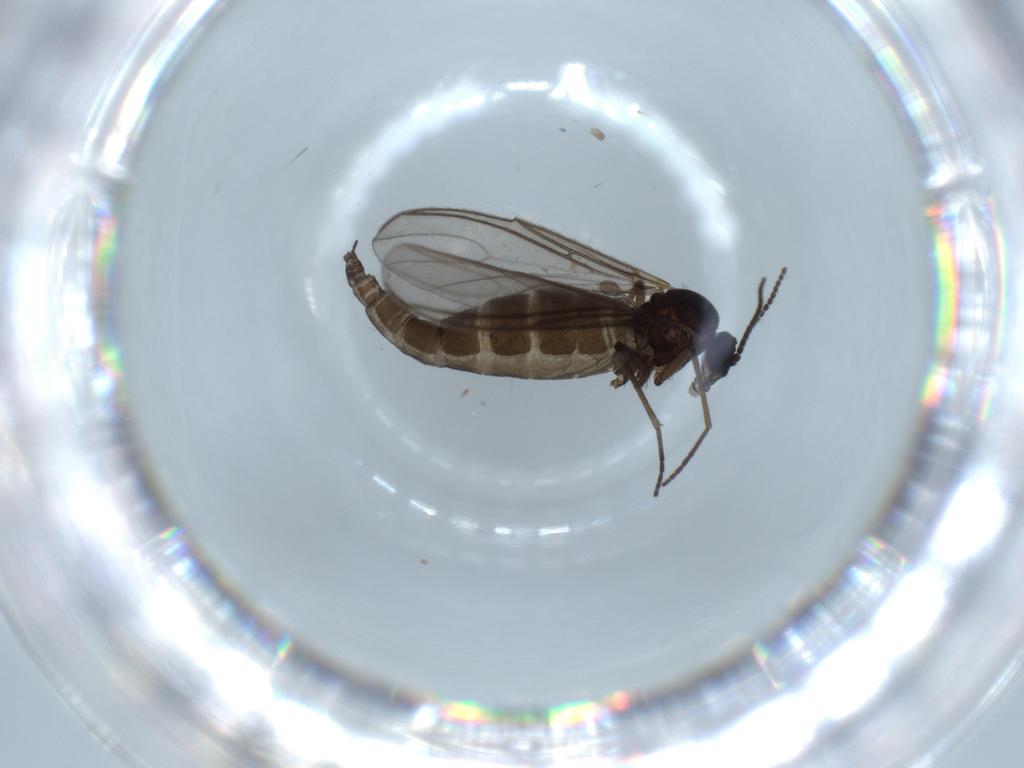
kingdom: Animalia
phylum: Arthropoda
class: Insecta
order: Diptera
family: Sciaridae
